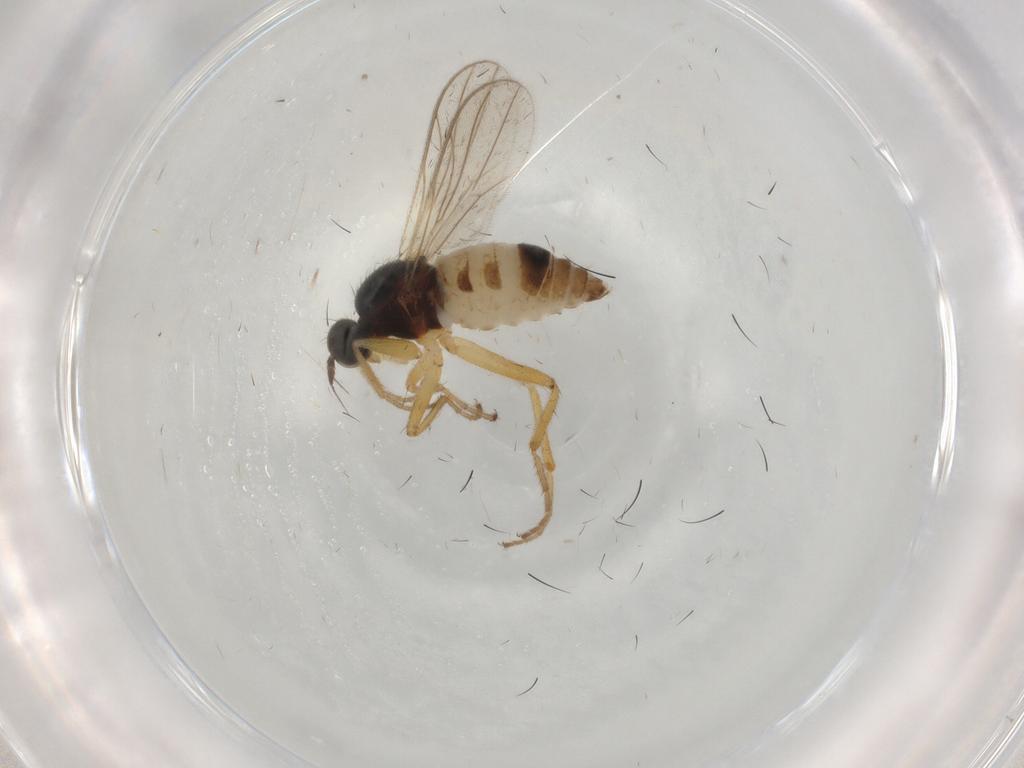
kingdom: Animalia
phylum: Arthropoda
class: Insecta
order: Diptera
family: Hybotidae
